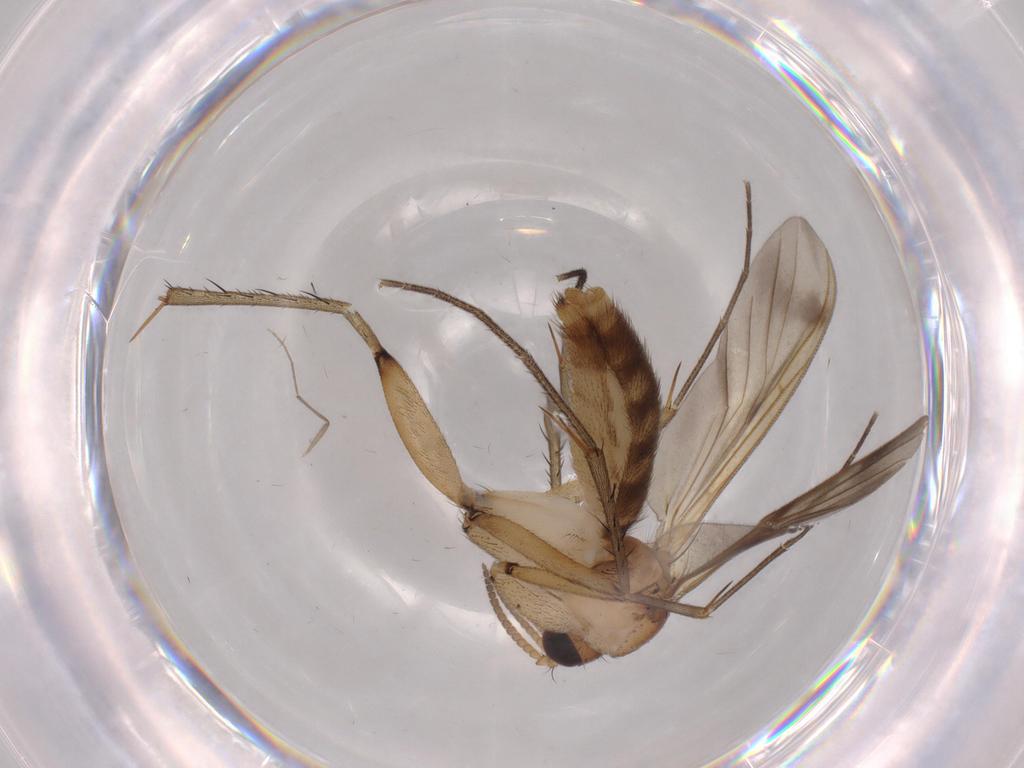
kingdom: Animalia
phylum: Arthropoda
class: Insecta
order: Diptera
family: Mycetophilidae
